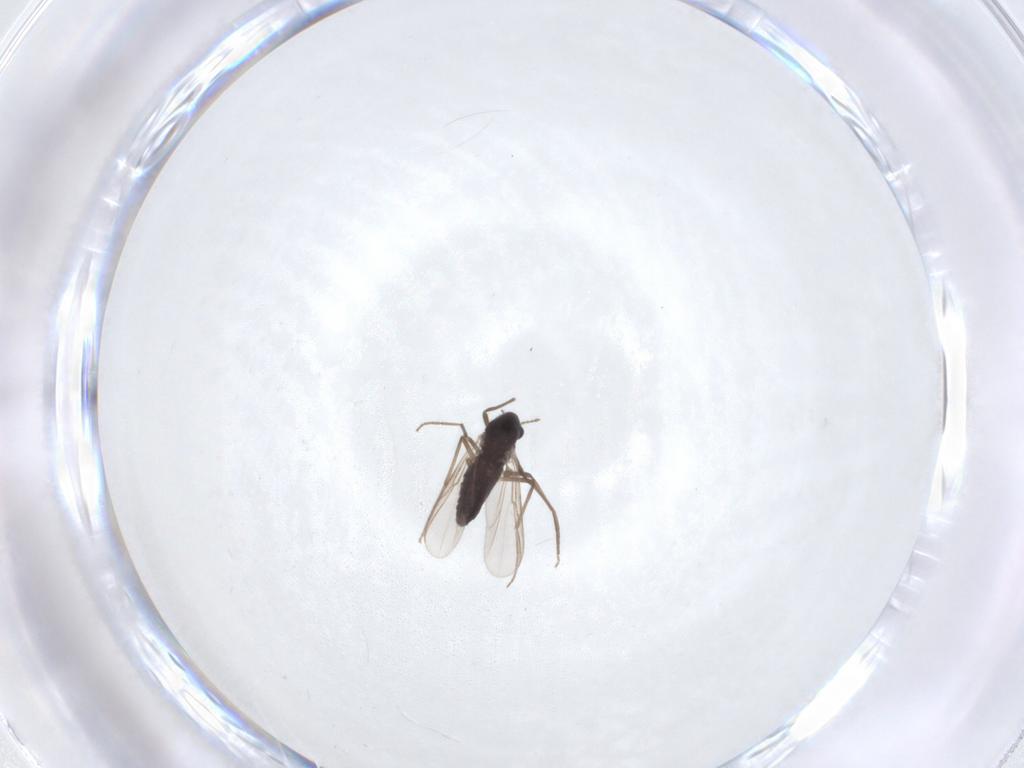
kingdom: Animalia
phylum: Arthropoda
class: Insecta
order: Diptera
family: Chironomidae
